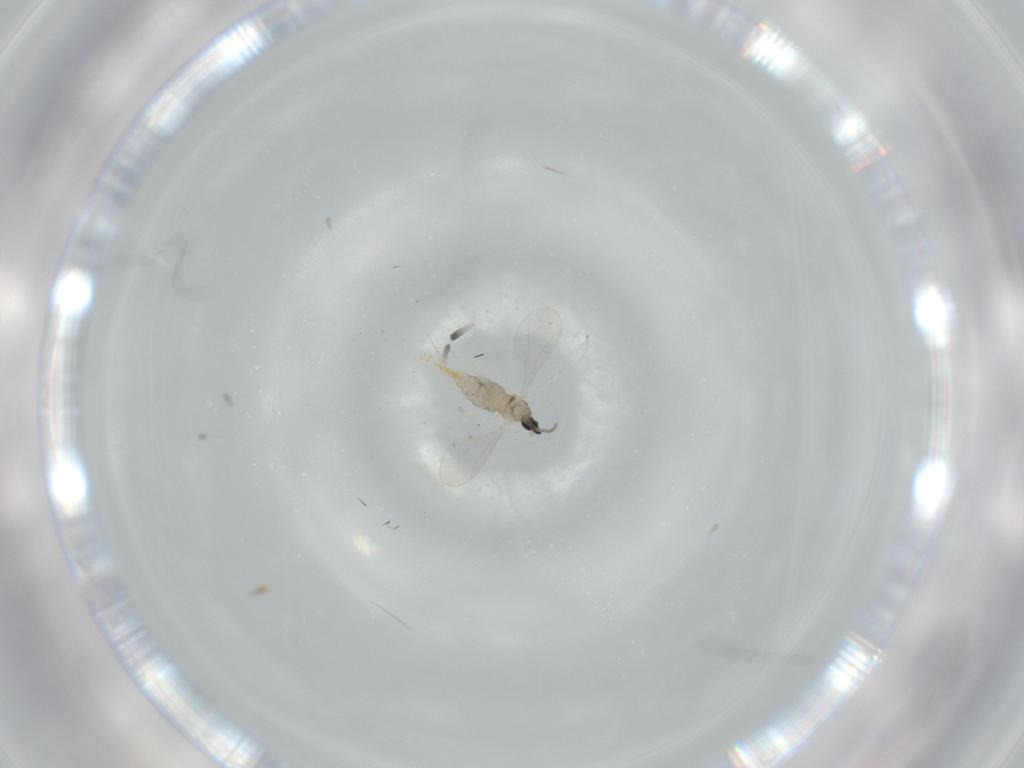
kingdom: Animalia
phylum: Arthropoda
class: Insecta
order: Diptera
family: Cecidomyiidae
